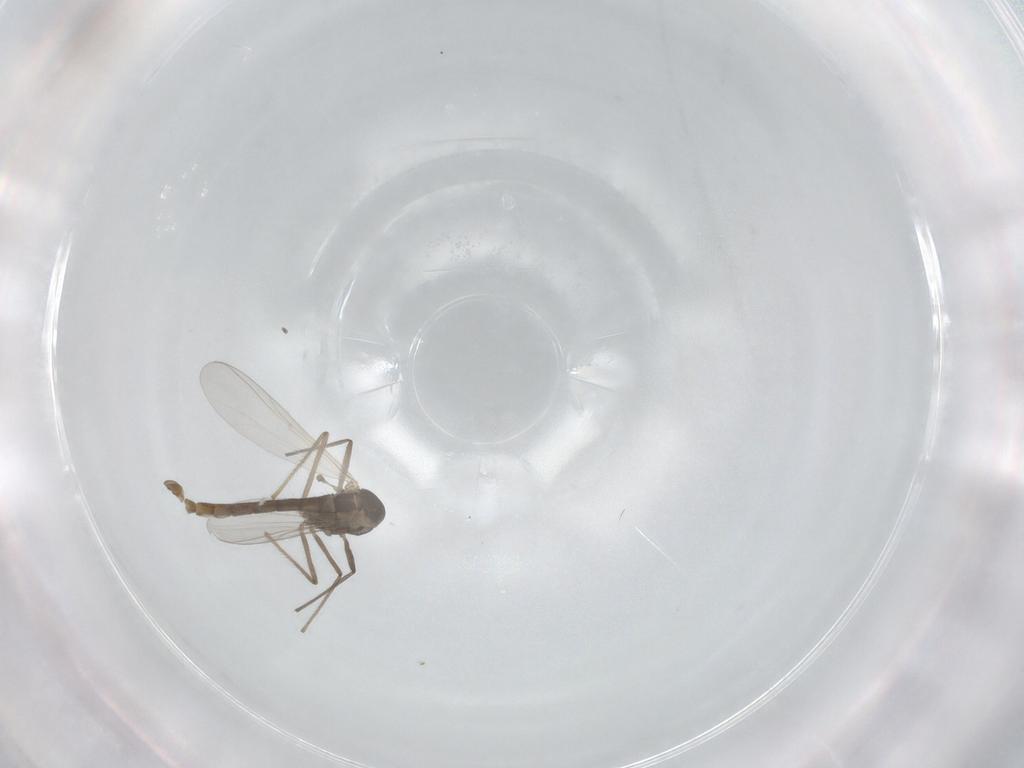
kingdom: Animalia
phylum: Arthropoda
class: Insecta
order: Diptera
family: Chironomidae
